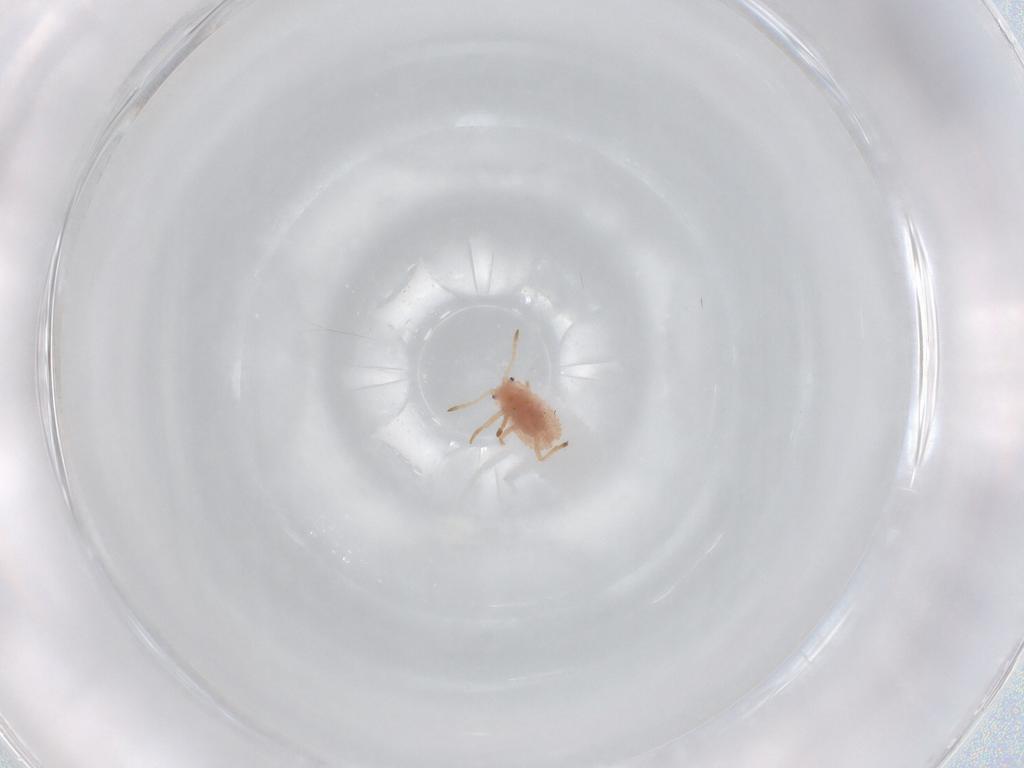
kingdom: Animalia
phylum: Arthropoda
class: Insecta
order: Hemiptera
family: Coccoidea_incertae_sedis
